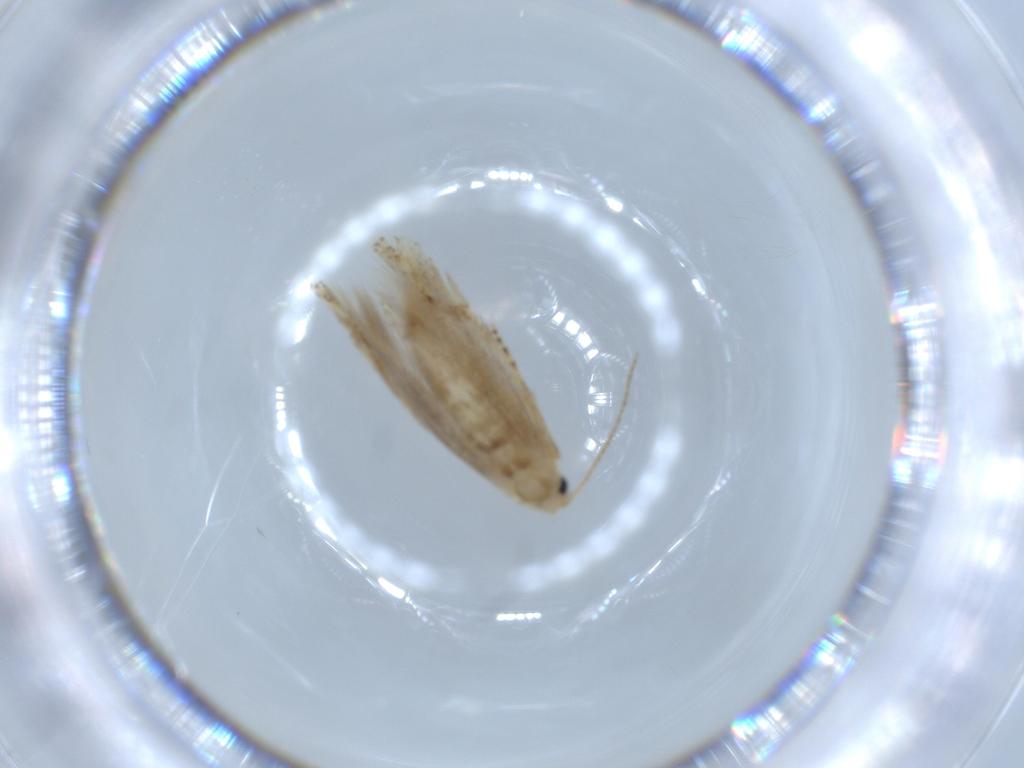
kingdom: Animalia
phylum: Arthropoda
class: Insecta
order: Lepidoptera
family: Bucculatricidae
